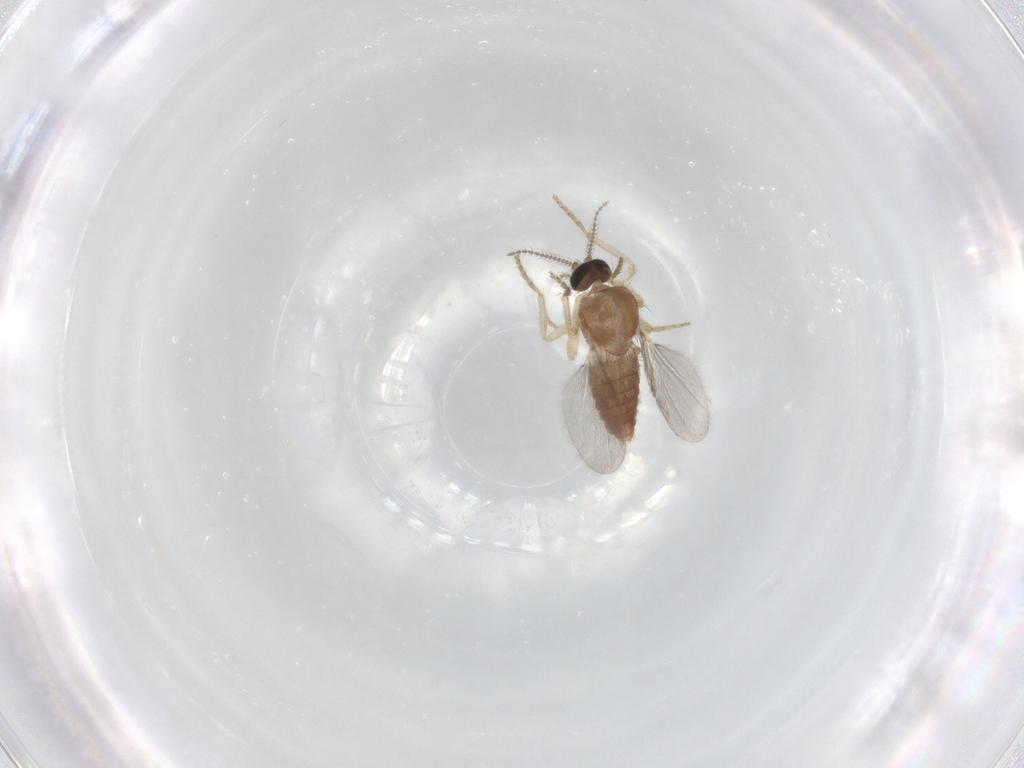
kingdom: Animalia
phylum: Arthropoda
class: Insecta
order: Diptera
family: Ceratopogonidae
